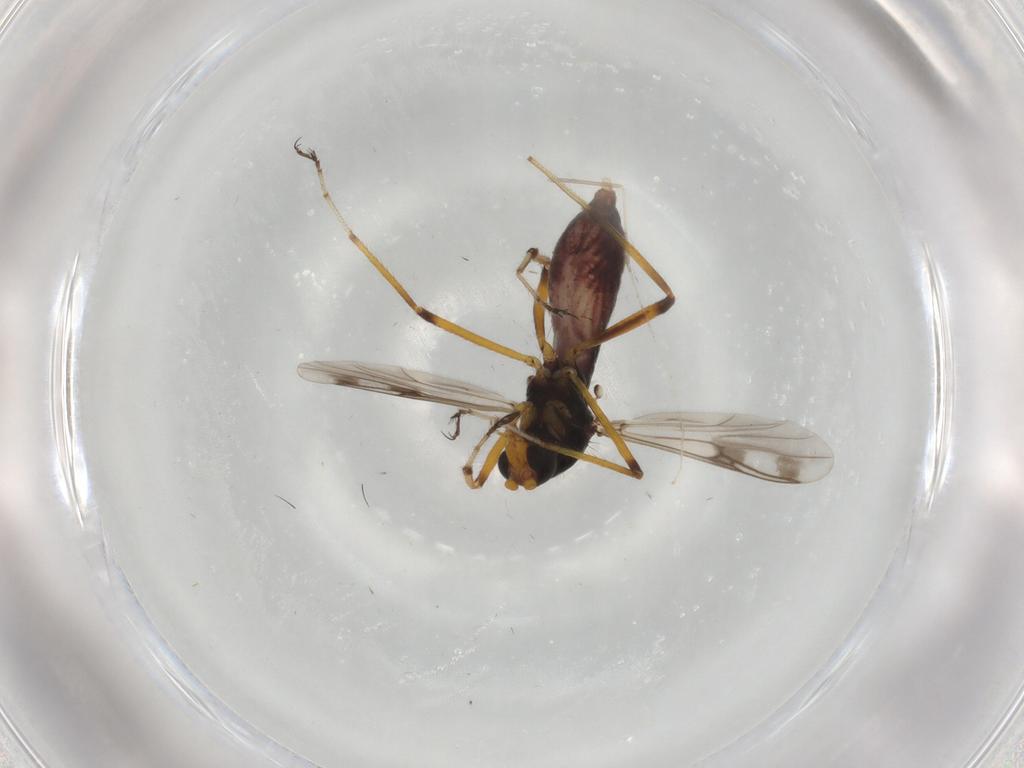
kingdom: Animalia
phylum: Arthropoda
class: Insecta
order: Diptera
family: Cecidomyiidae
